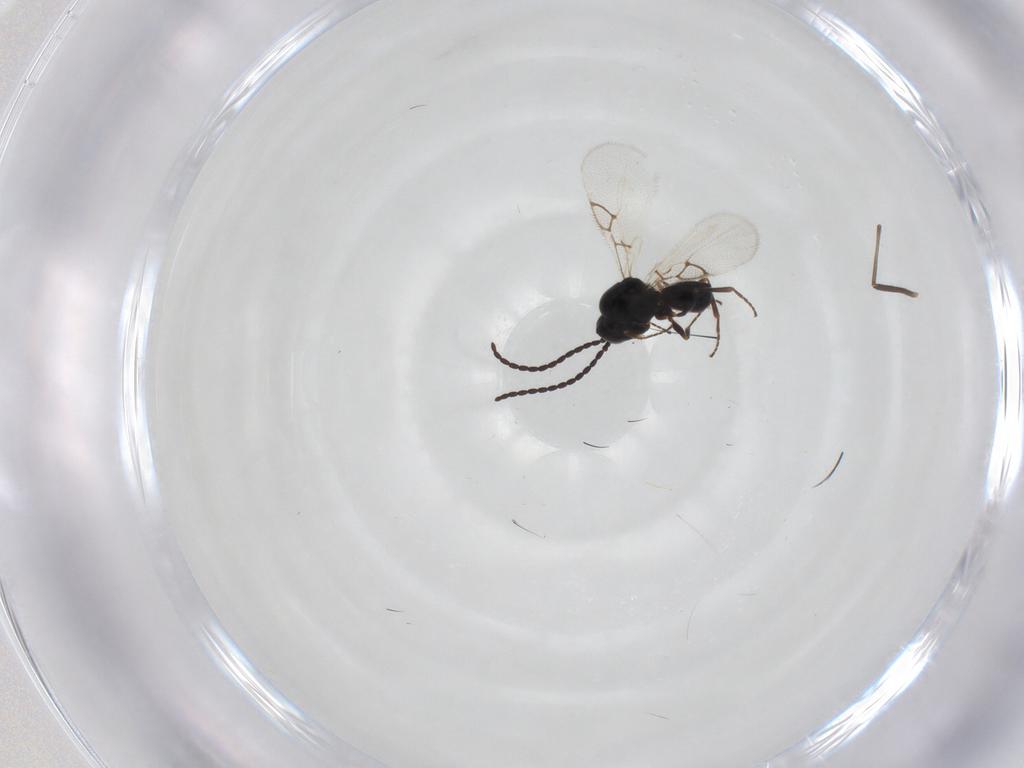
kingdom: Animalia
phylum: Arthropoda
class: Insecta
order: Hymenoptera
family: Figitidae
